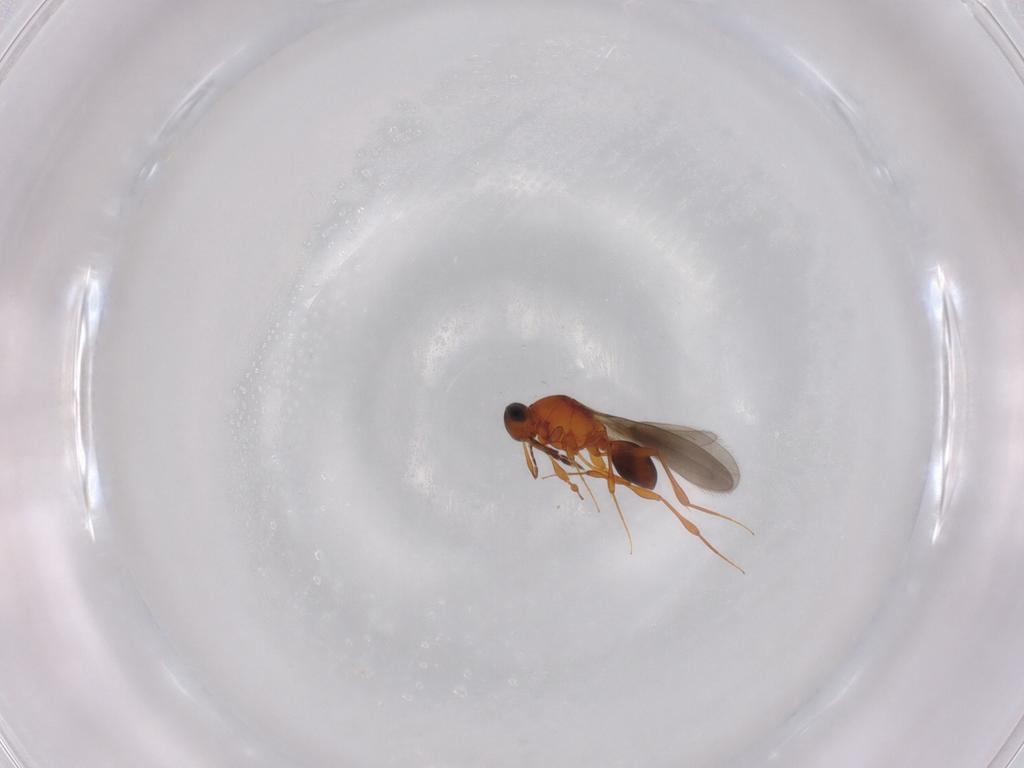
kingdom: Animalia
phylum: Arthropoda
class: Insecta
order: Hymenoptera
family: Platygastridae
